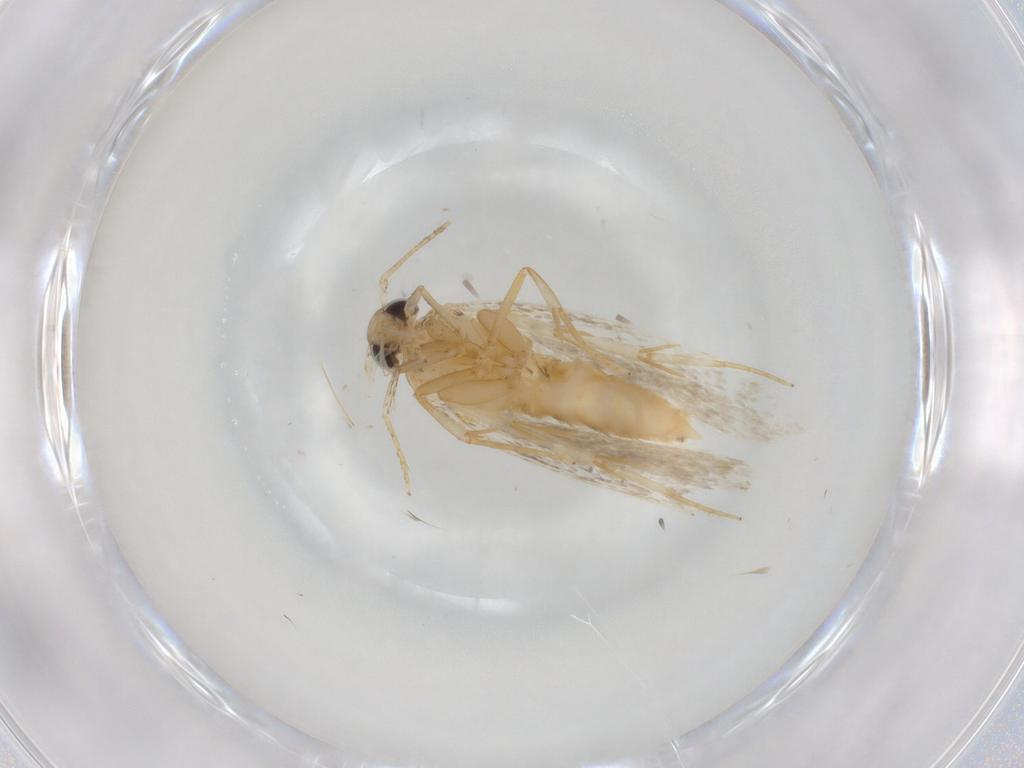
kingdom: Animalia
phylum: Arthropoda
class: Insecta
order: Lepidoptera
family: Autostichidae
